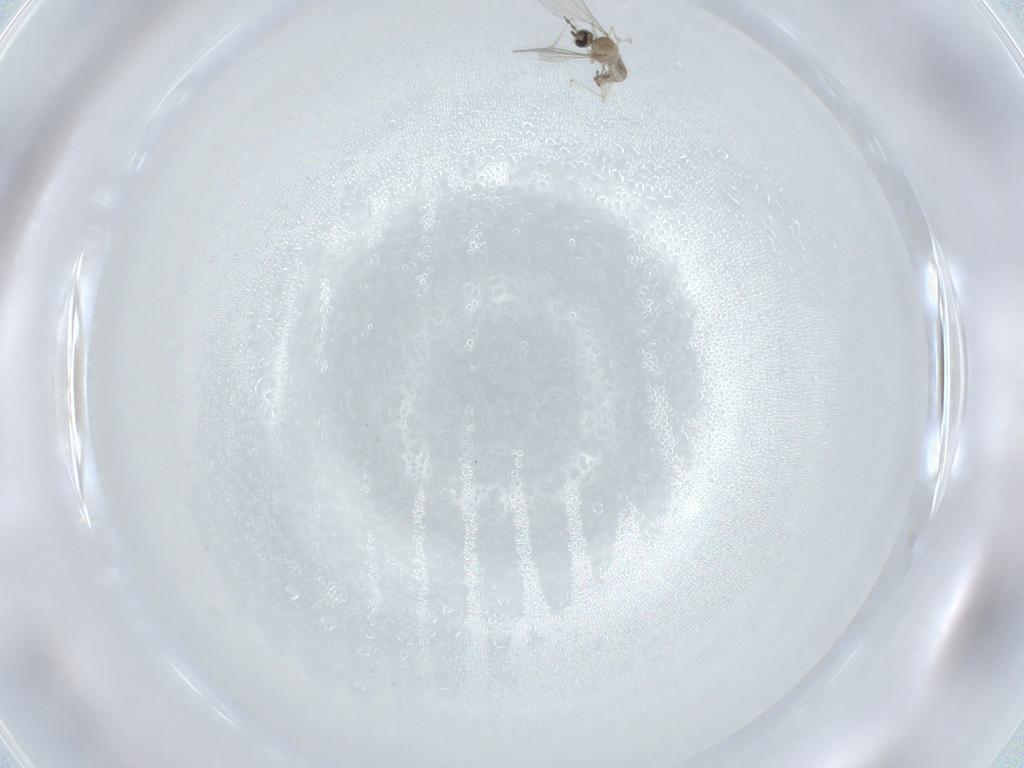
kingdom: Animalia
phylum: Arthropoda
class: Insecta
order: Diptera
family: Cecidomyiidae
